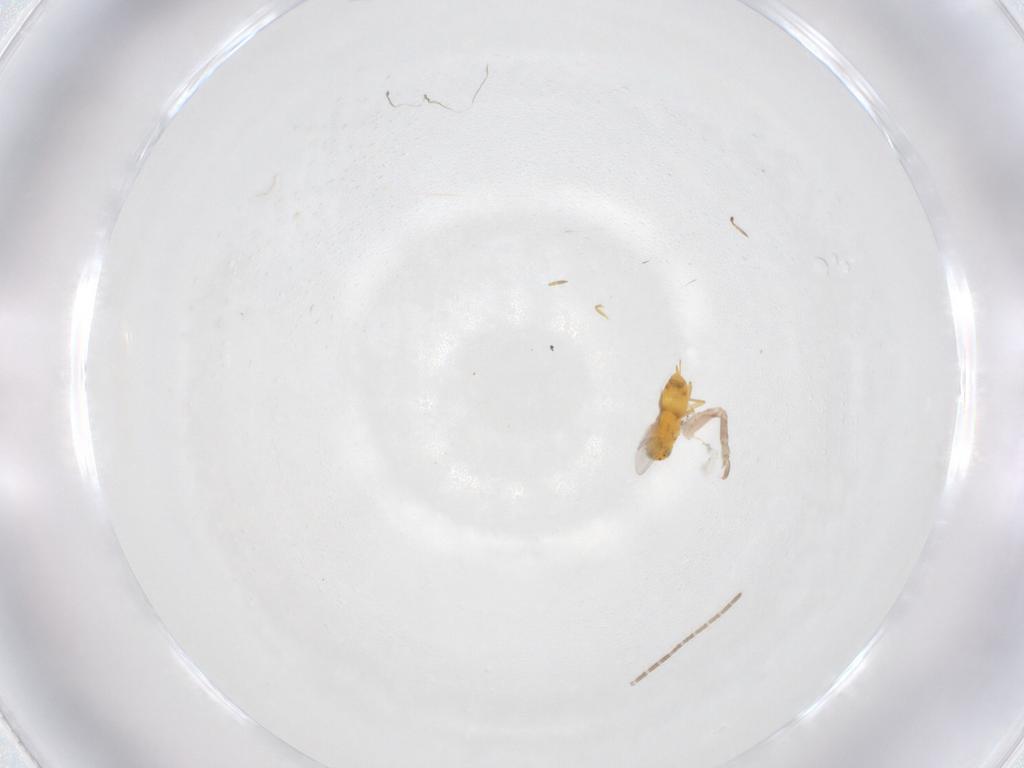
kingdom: Animalia
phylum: Arthropoda
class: Insecta
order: Hymenoptera
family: Aphelinidae
